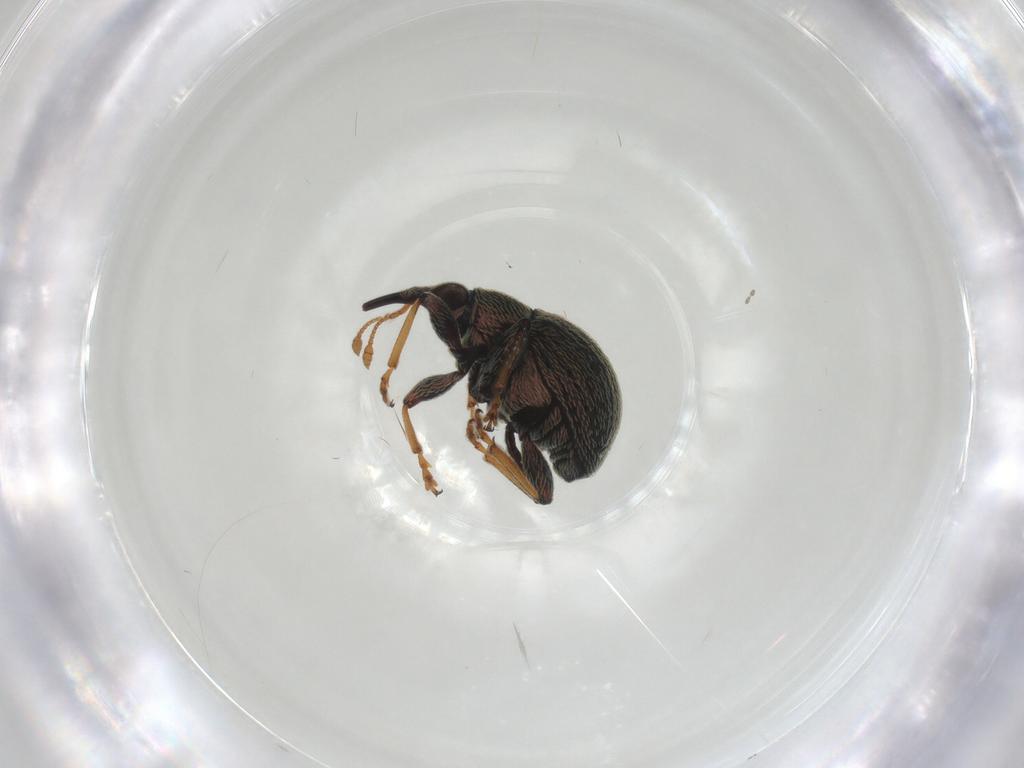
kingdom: Animalia
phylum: Arthropoda
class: Insecta
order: Coleoptera
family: Brentidae
